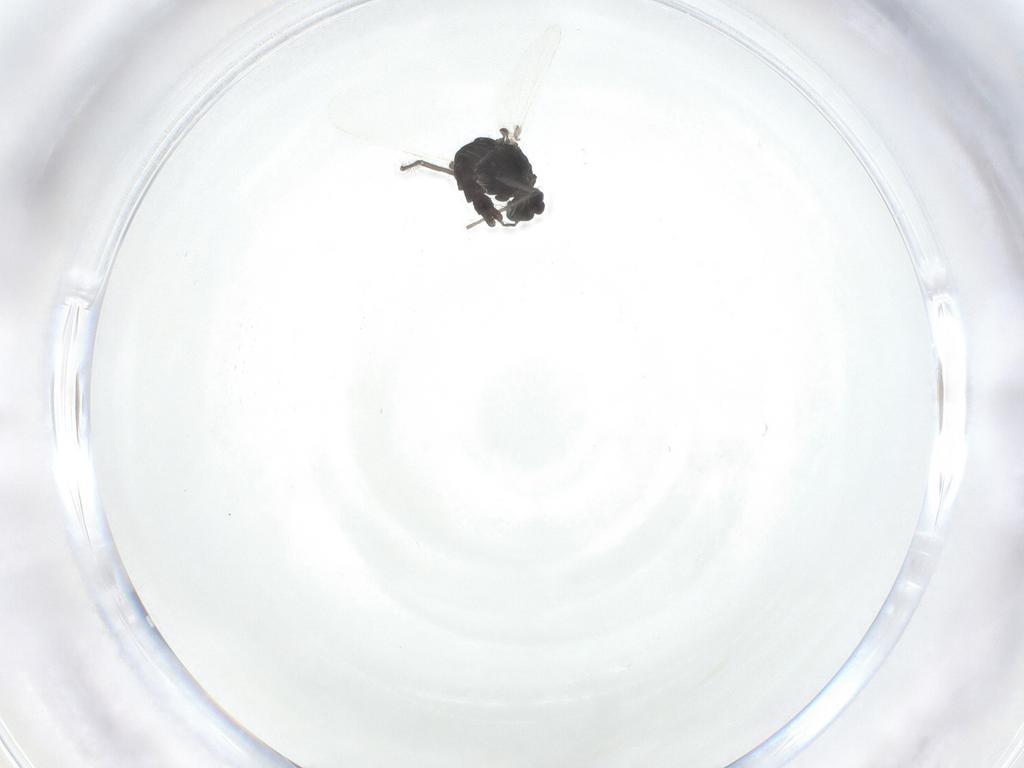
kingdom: Animalia
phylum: Arthropoda
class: Insecta
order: Diptera
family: Chironomidae
